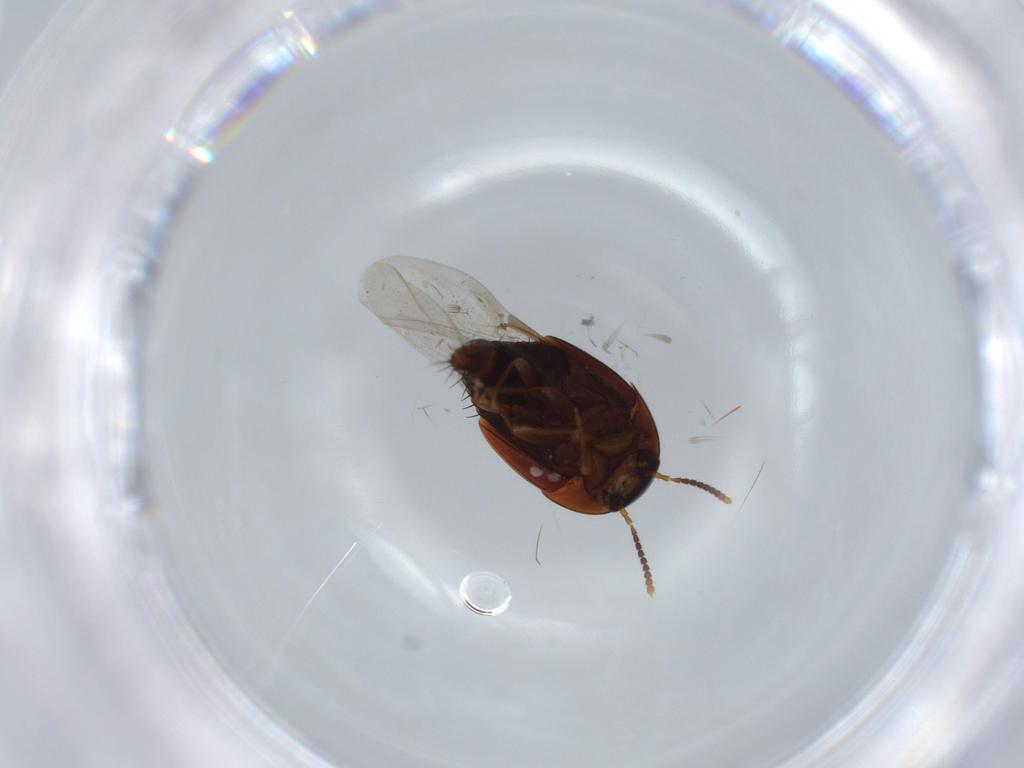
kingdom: Animalia
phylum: Arthropoda
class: Insecta
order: Coleoptera
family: Staphylinidae
